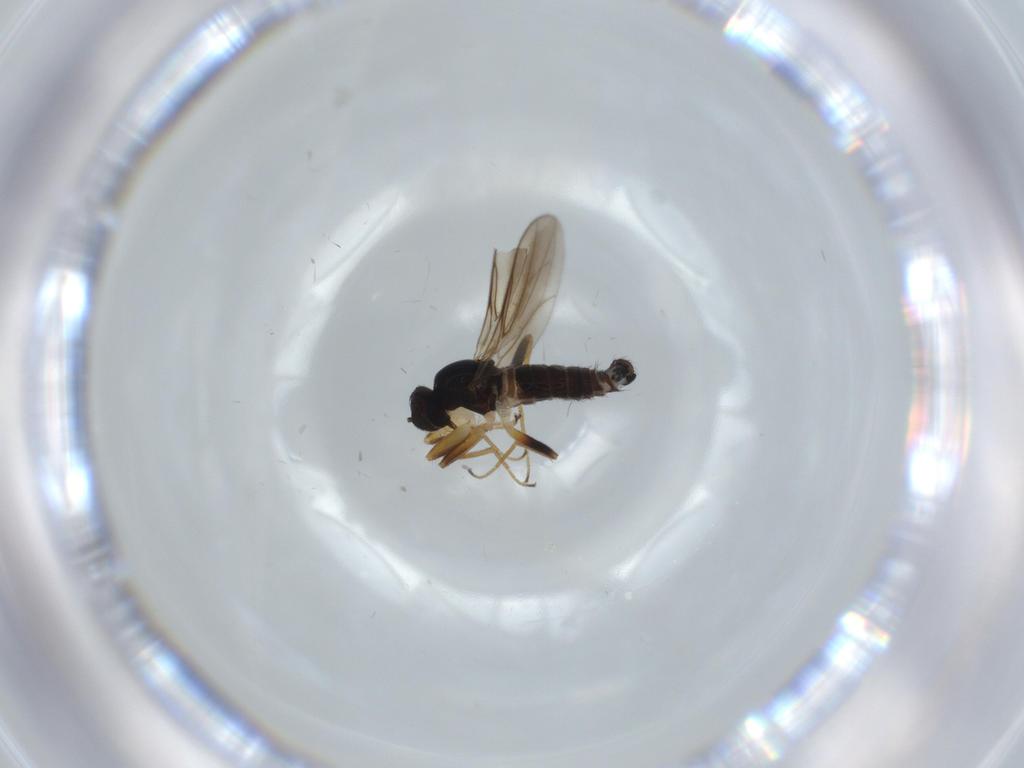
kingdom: Animalia
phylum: Arthropoda
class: Insecta
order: Diptera
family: Hybotidae
